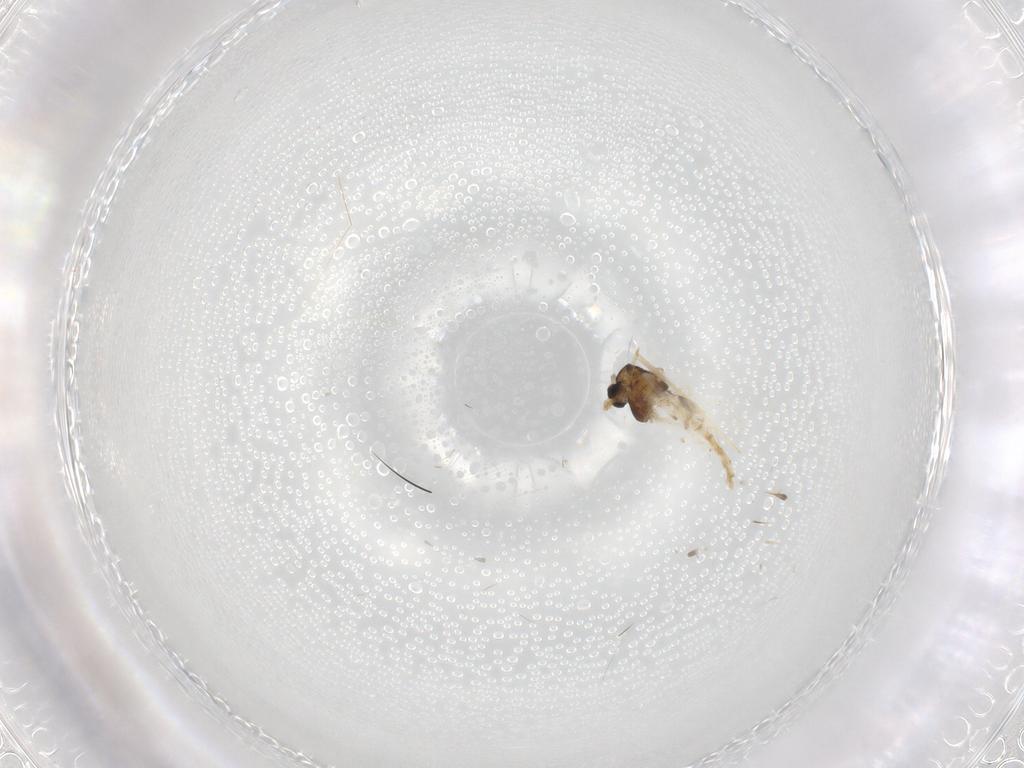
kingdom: Animalia
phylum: Arthropoda
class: Insecta
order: Diptera
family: Chironomidae
